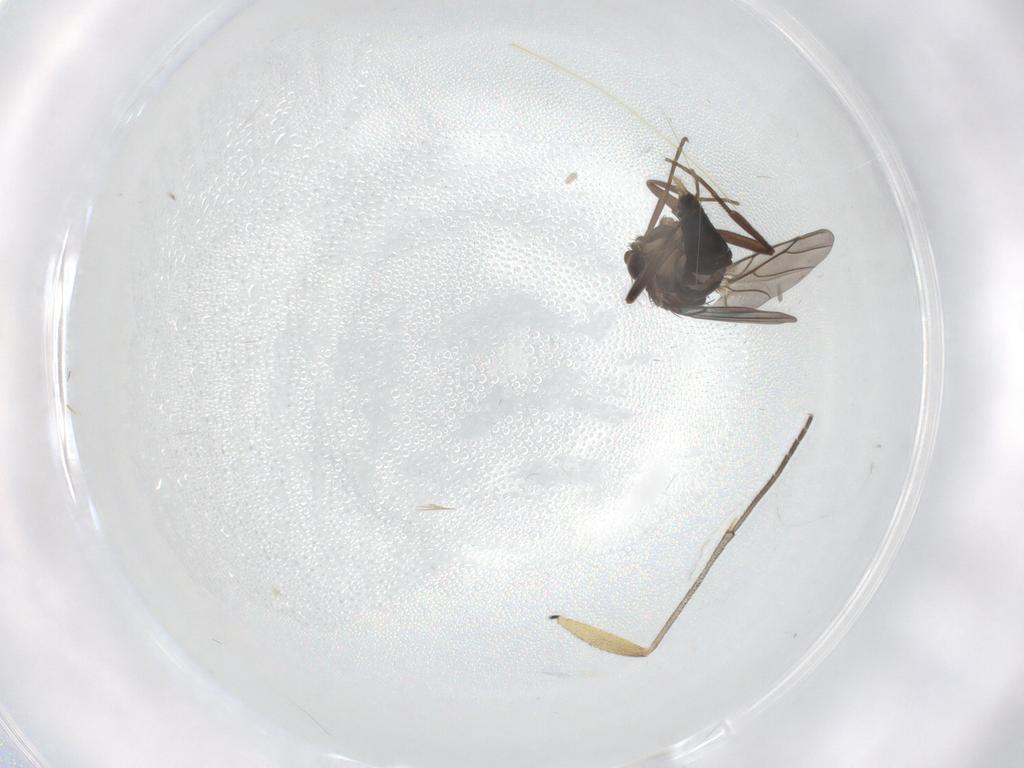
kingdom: Animalia
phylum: Arthropoda
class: Insecta
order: Diptera
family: Sciaridae
